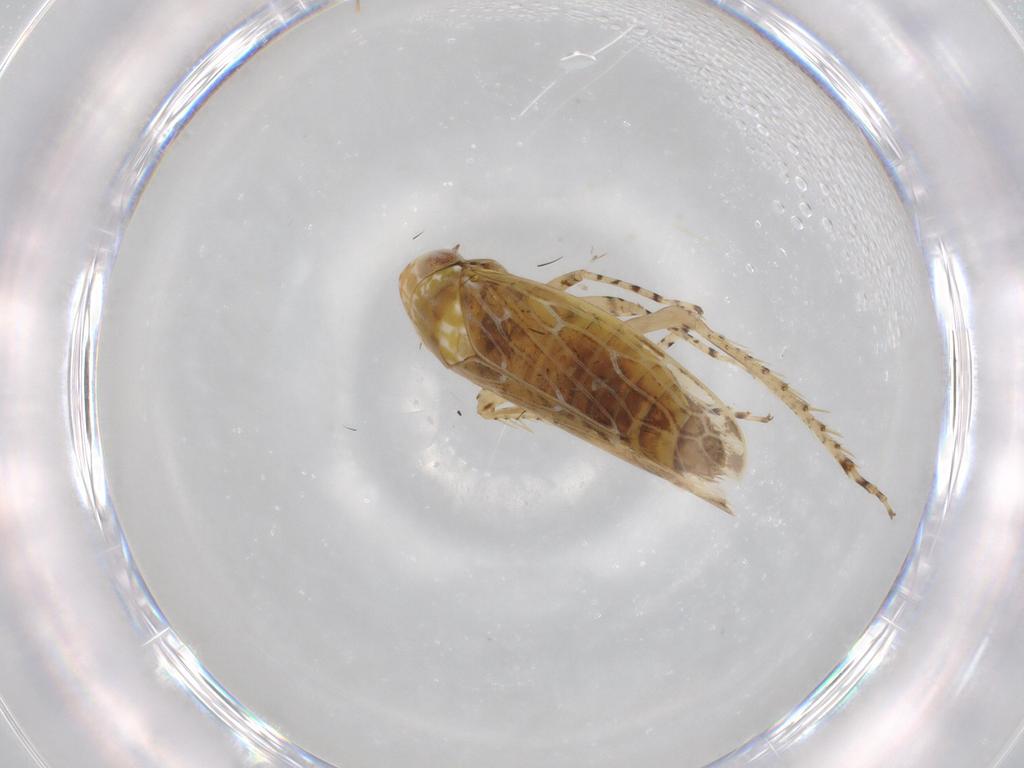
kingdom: Animalia
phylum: Arthropoda
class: Insecta
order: Hemiptera
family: Cicadellidae
